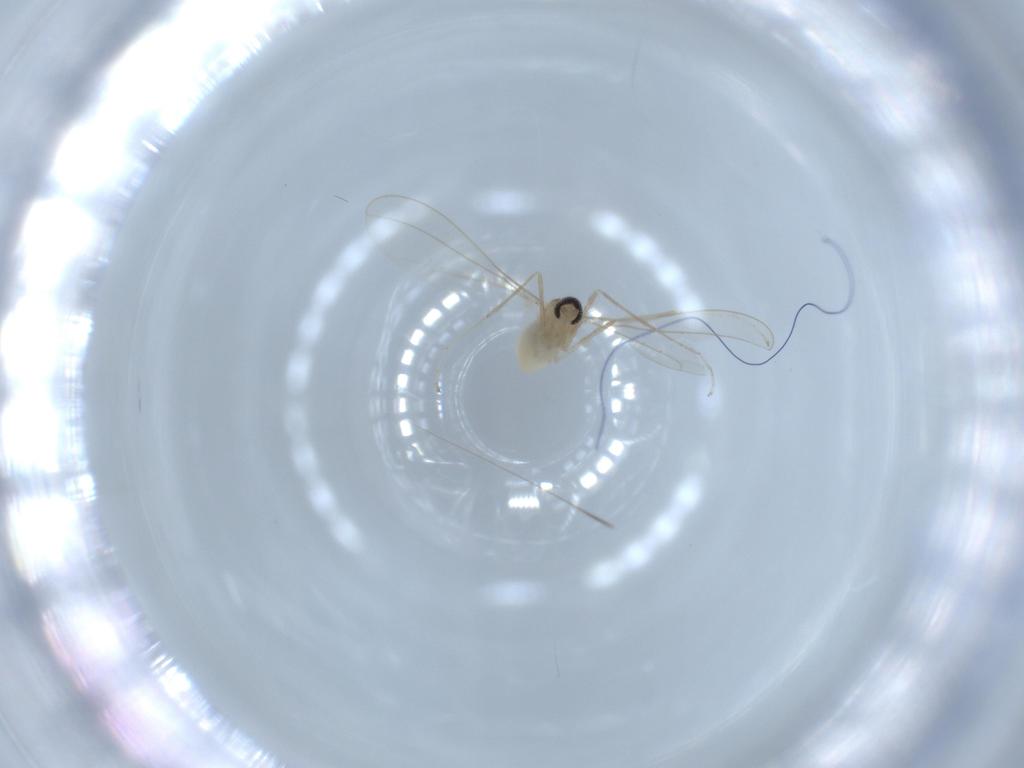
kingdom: Animalia
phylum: Arthropoda
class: Insecta
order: Diptera
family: Cecidomyiidae
